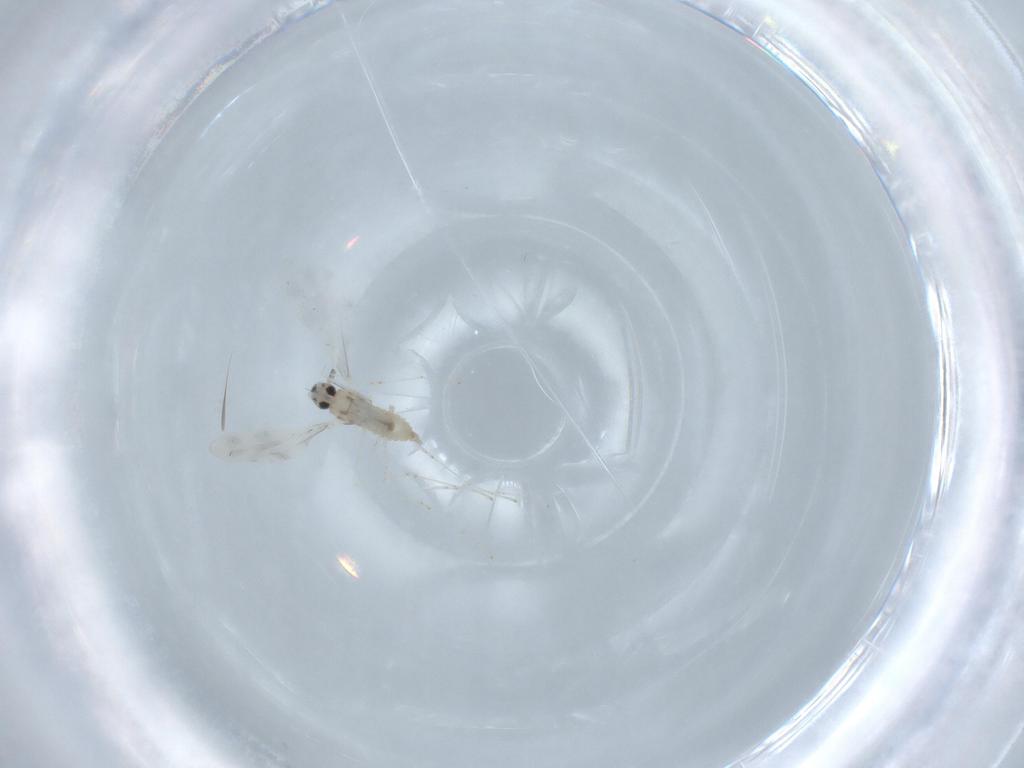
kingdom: Animalia
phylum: Arthropoda
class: Insecta
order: Diptera
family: Cecidomyiidae
